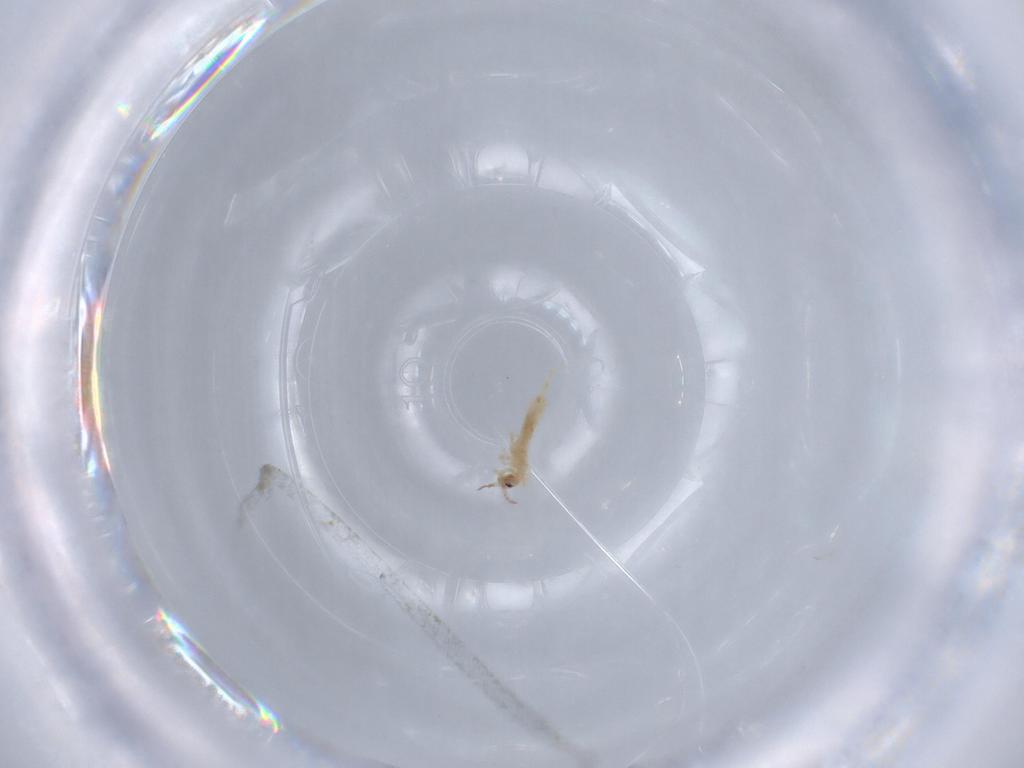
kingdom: Animalia
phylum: Arthropoda
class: Collembola
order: Entomobryomorpha
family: Entomobryidae
